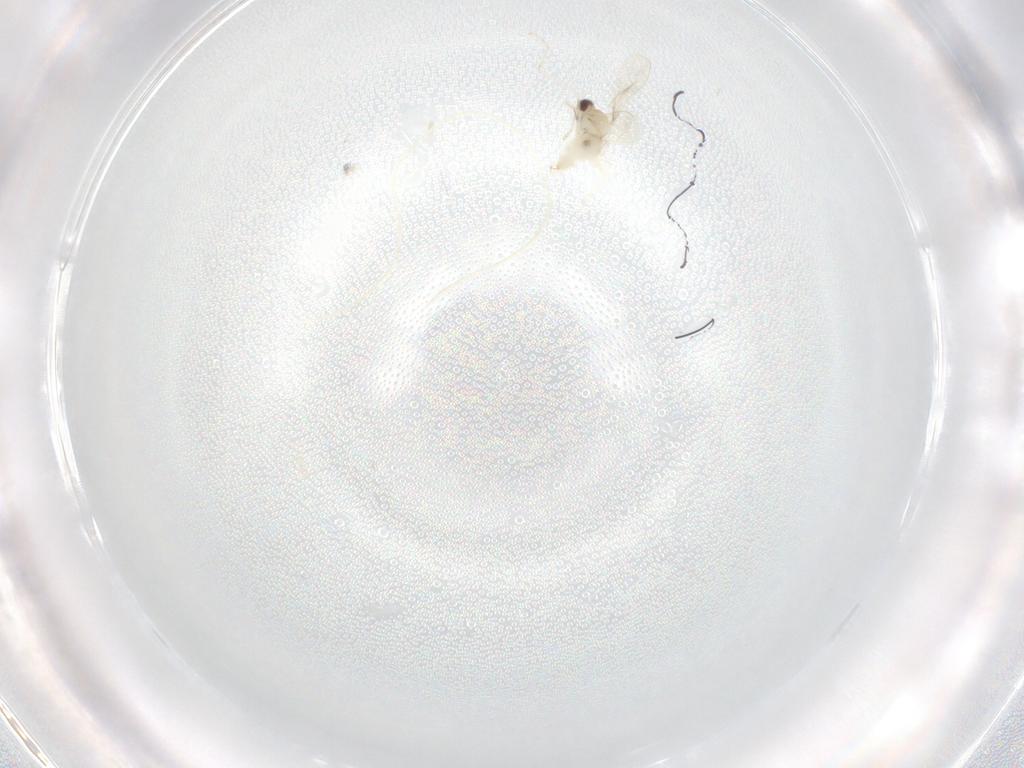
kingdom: Animalia
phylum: Arthropoda
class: Insecta
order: Diptera
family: Cecidomyiidae
